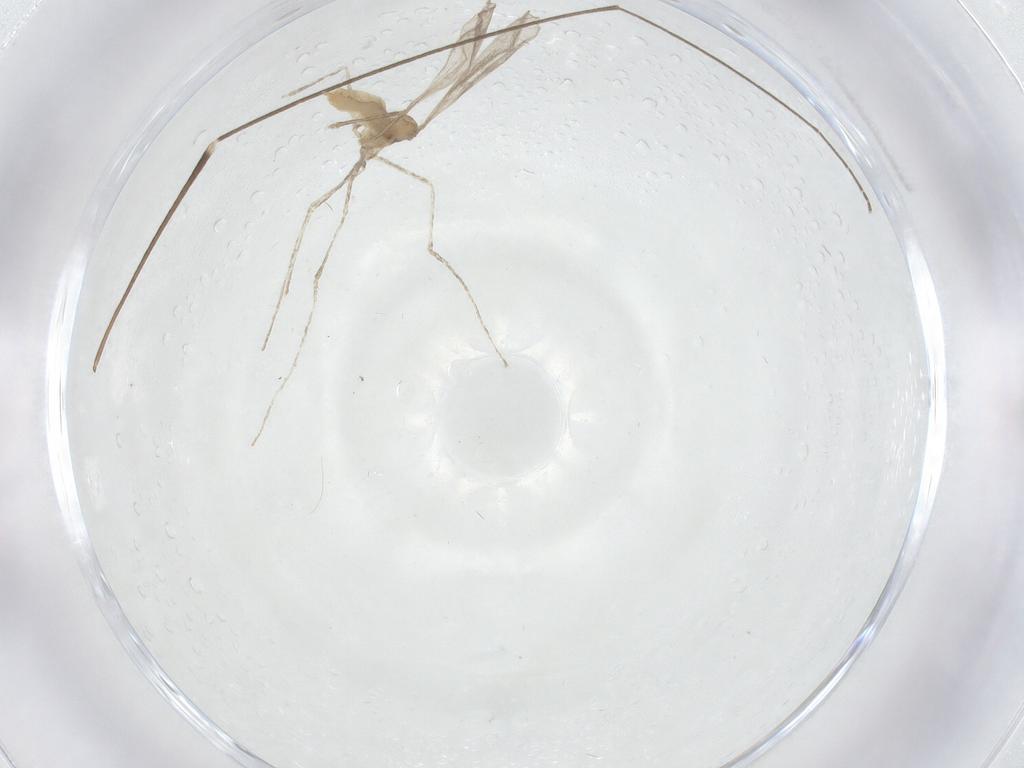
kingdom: Animalia
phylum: Arthropoda
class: Insecta
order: Diptera
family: Limoniidae
